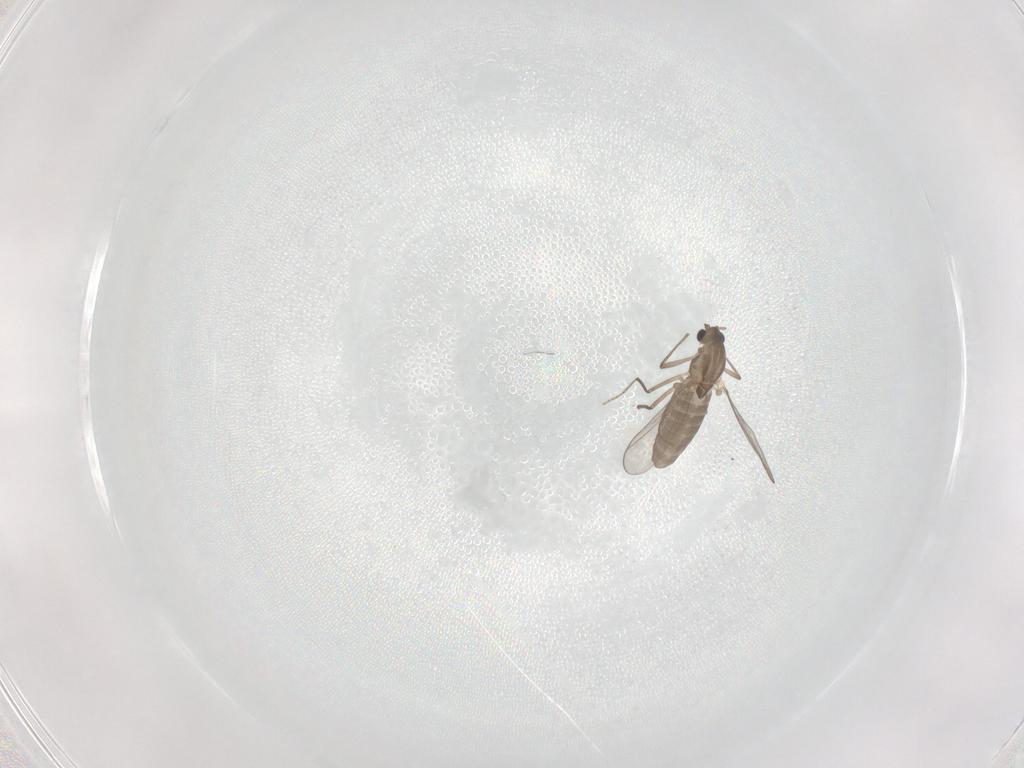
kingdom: Animalia
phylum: Arthropoda
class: Insecta
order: Diptera
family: Chironomidae
